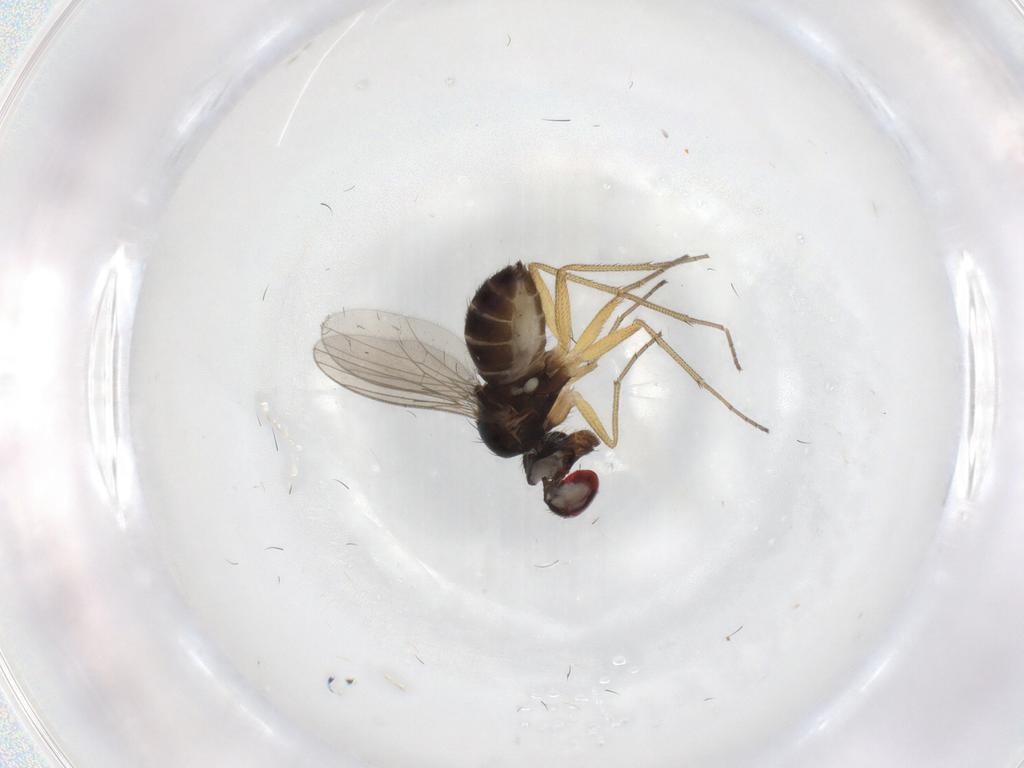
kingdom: Animalia
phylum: Arthropoda
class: Insecta
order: Diptera
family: Dolichopodidae
